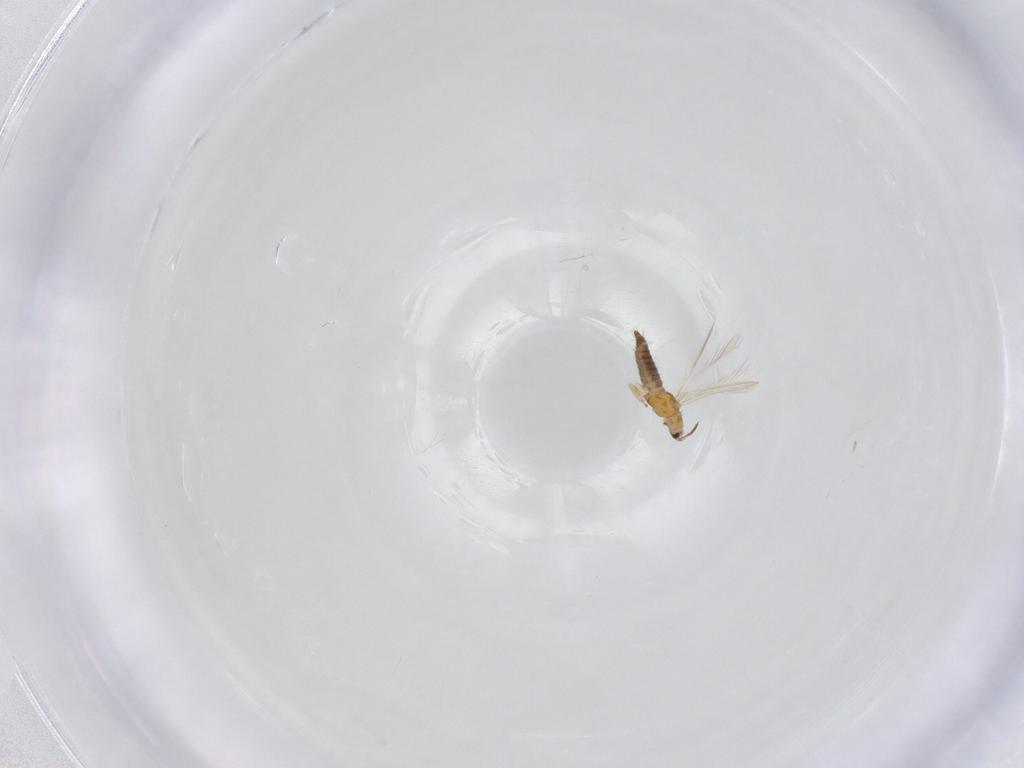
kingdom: Animalia
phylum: Arthropoda
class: Insecta
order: Thysanoptera
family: Thripidae
